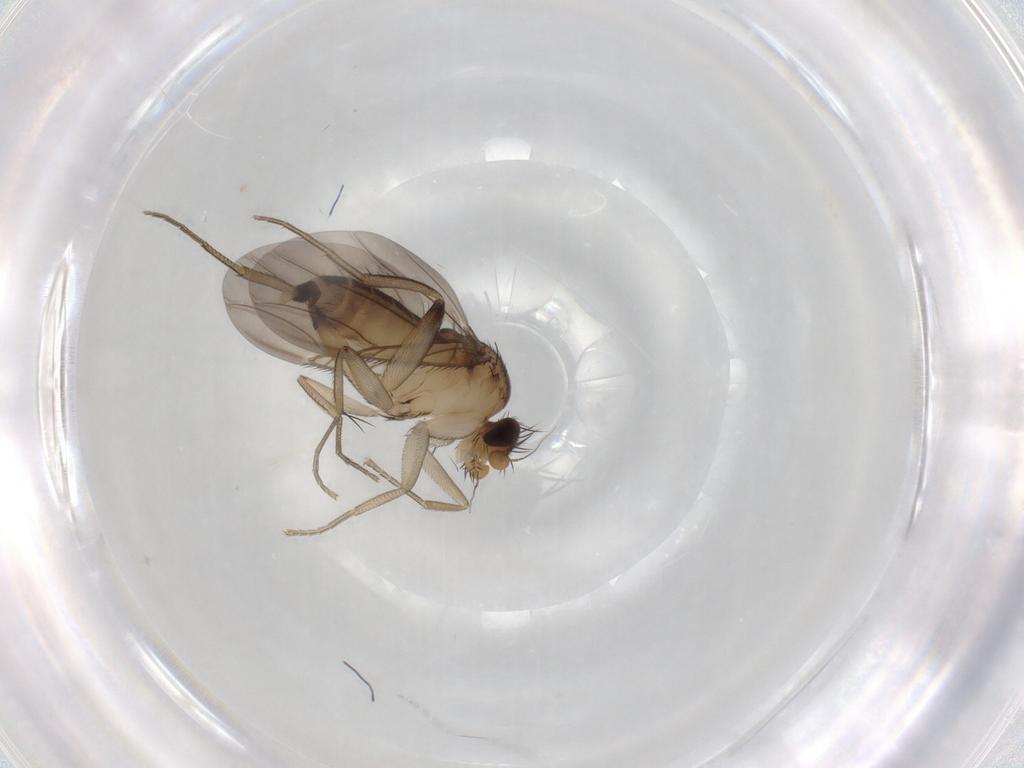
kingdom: Animalia
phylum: Arthropoda
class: Insecta
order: Diptera
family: Phoridae
